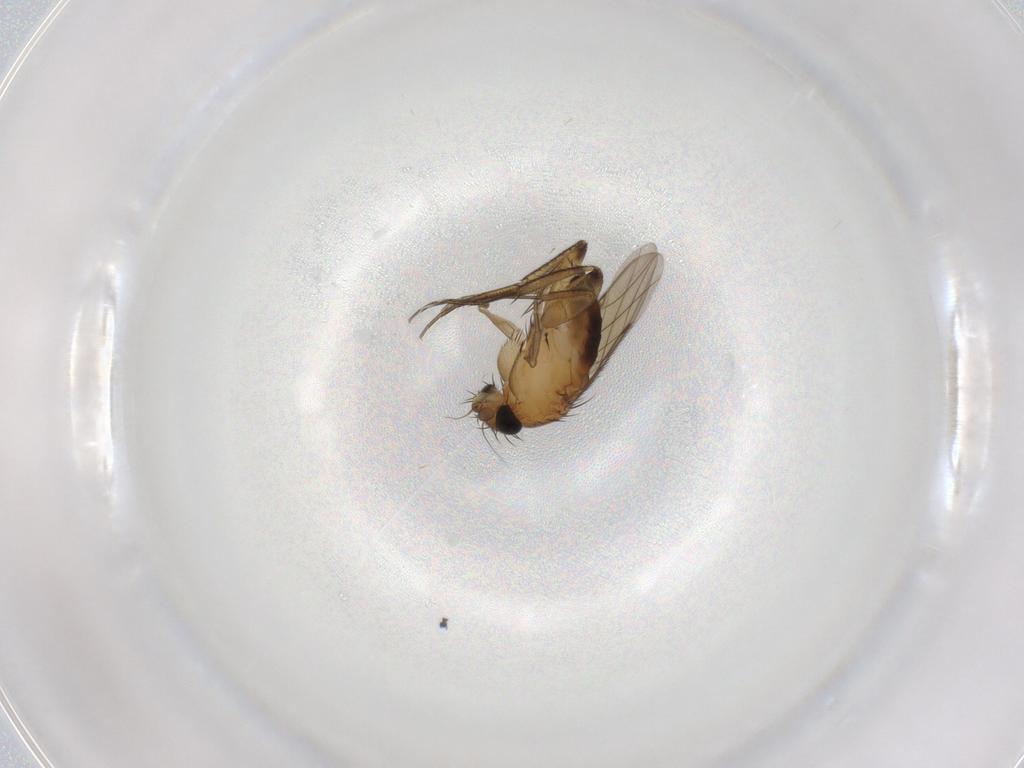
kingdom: Animalia
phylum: Arthropoda
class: Insecta
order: Diptera
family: Phoridae
